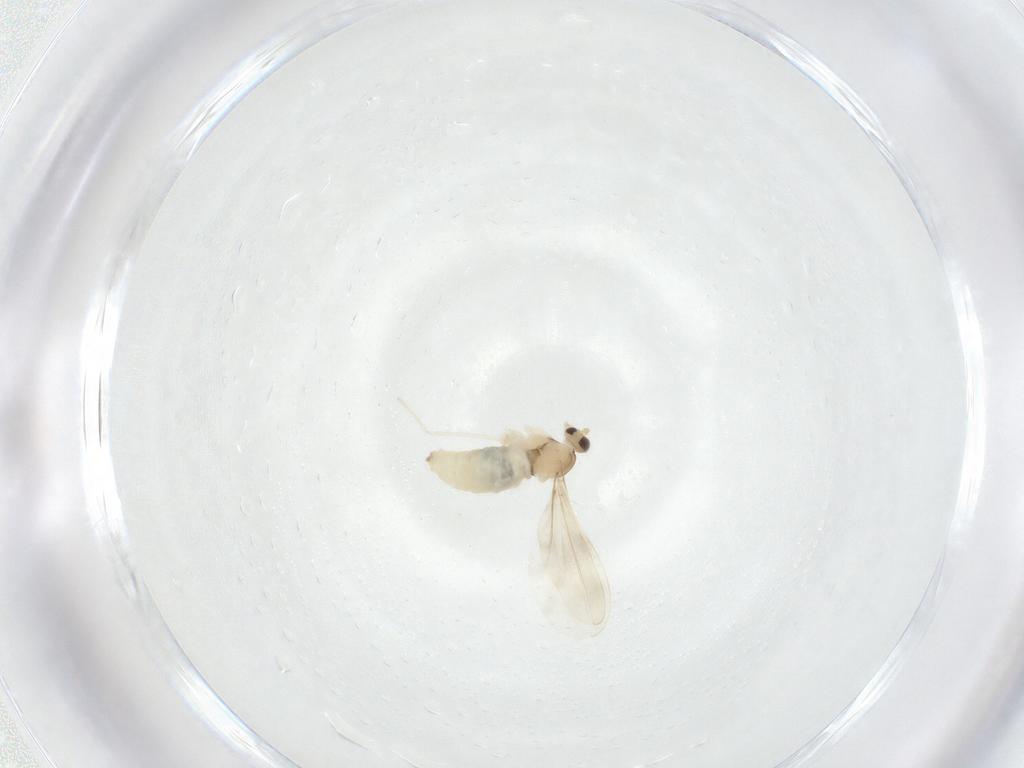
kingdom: Animalia
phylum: Arthropoda
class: Insecta
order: Diptera
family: Cecidomyiidae
